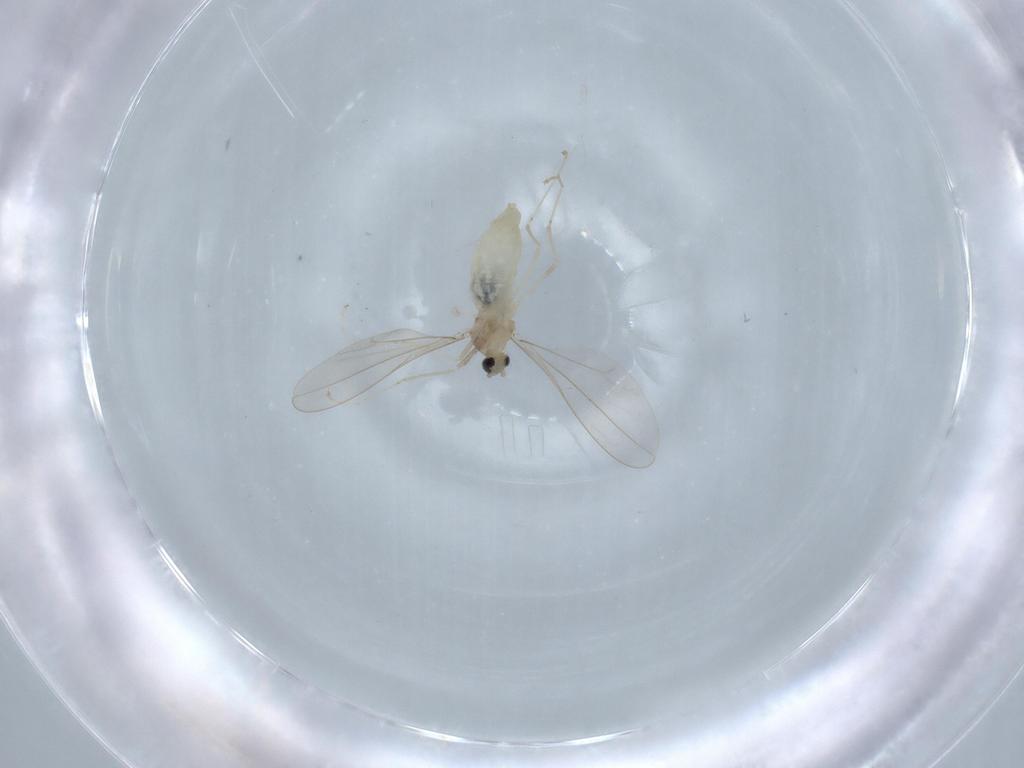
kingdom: Animalia
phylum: Arthropoda
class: Insecta
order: Diptera
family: Cecidomyiidae
